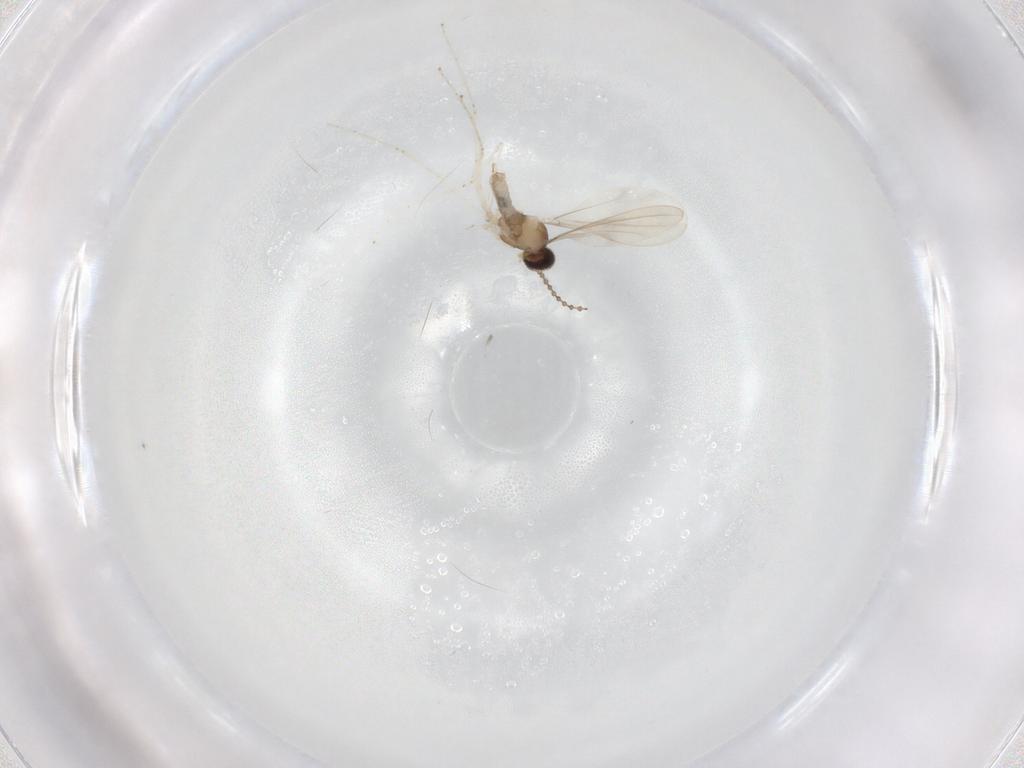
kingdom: Animalia
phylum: Arthropoda
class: Insecta
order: Diptera
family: Cecidomyiidae
